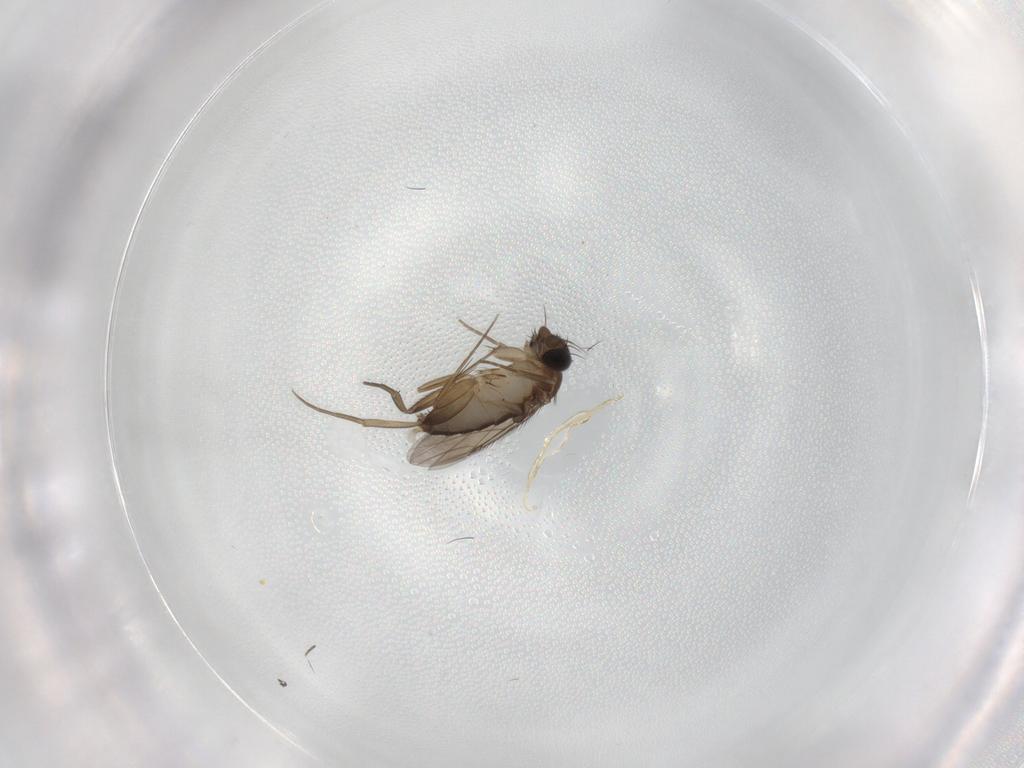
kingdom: Animalia
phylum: Arthropoda
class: Insecta
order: Diptera
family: Phoridae
